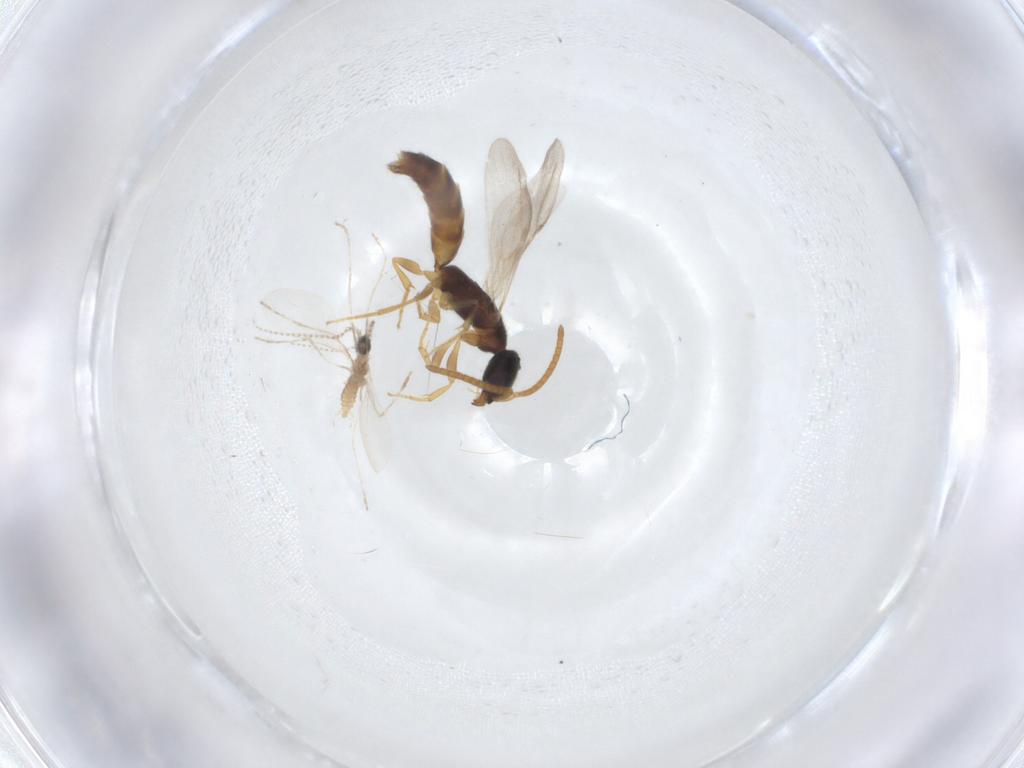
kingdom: Animalia
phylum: Arthropoda
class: Insecta
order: Hymenoptera
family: Bethylidae
